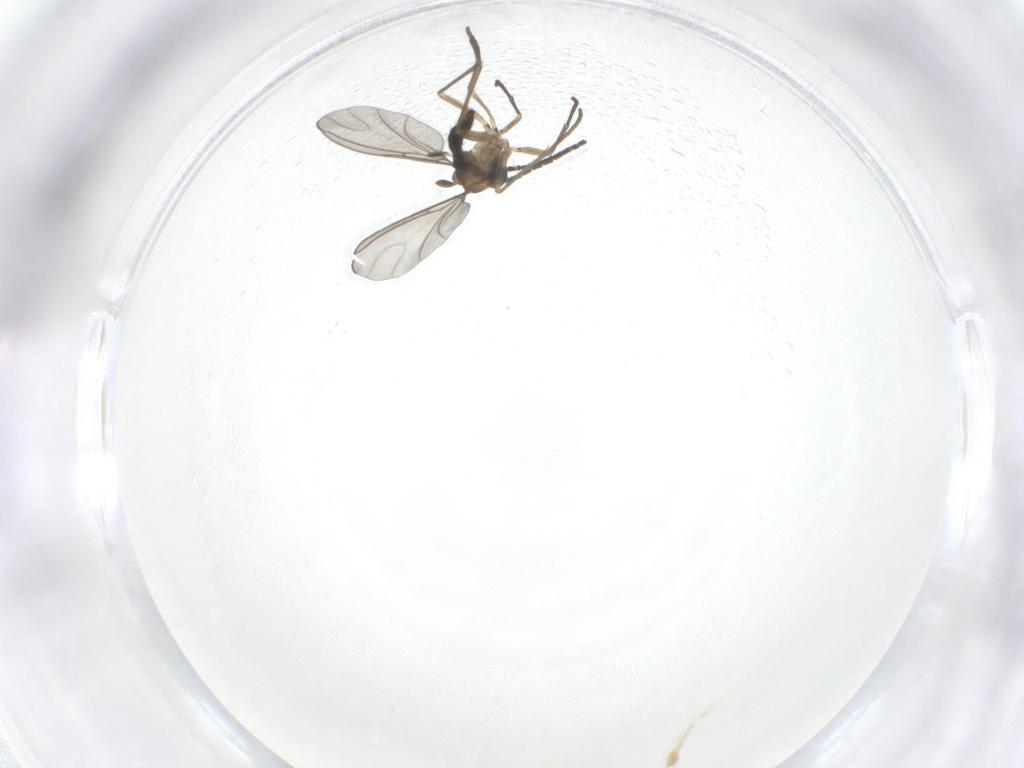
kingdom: Animalia
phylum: Arthropoda
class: Insecta
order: Diptera
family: Sciaridae
